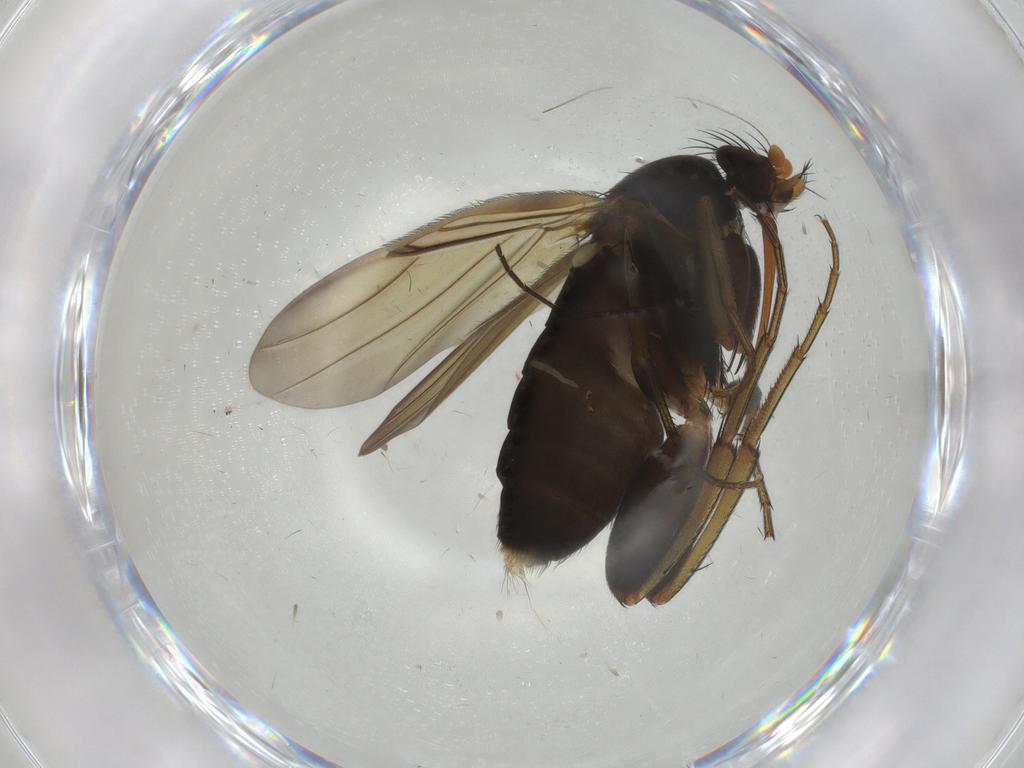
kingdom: Animalia
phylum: Arthropoda
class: Insecta
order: Diptera
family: Phoridae
